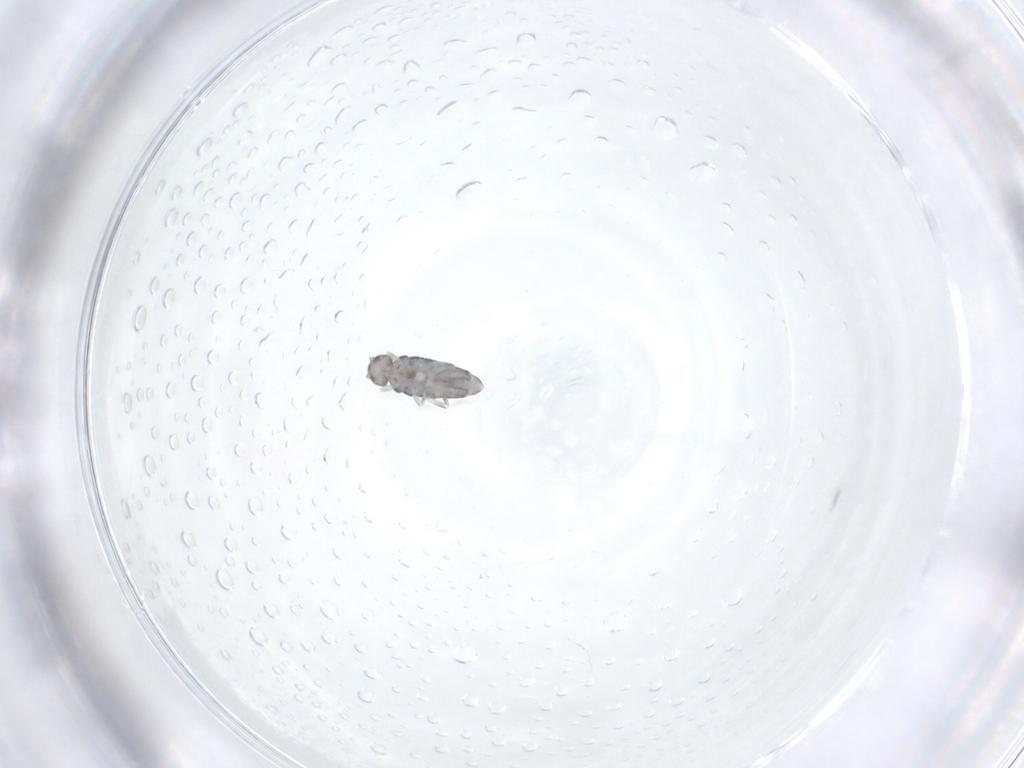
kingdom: Animalia
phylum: Arthropoda
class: Collembola
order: Entomobryomorpha
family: Entomobryidae
